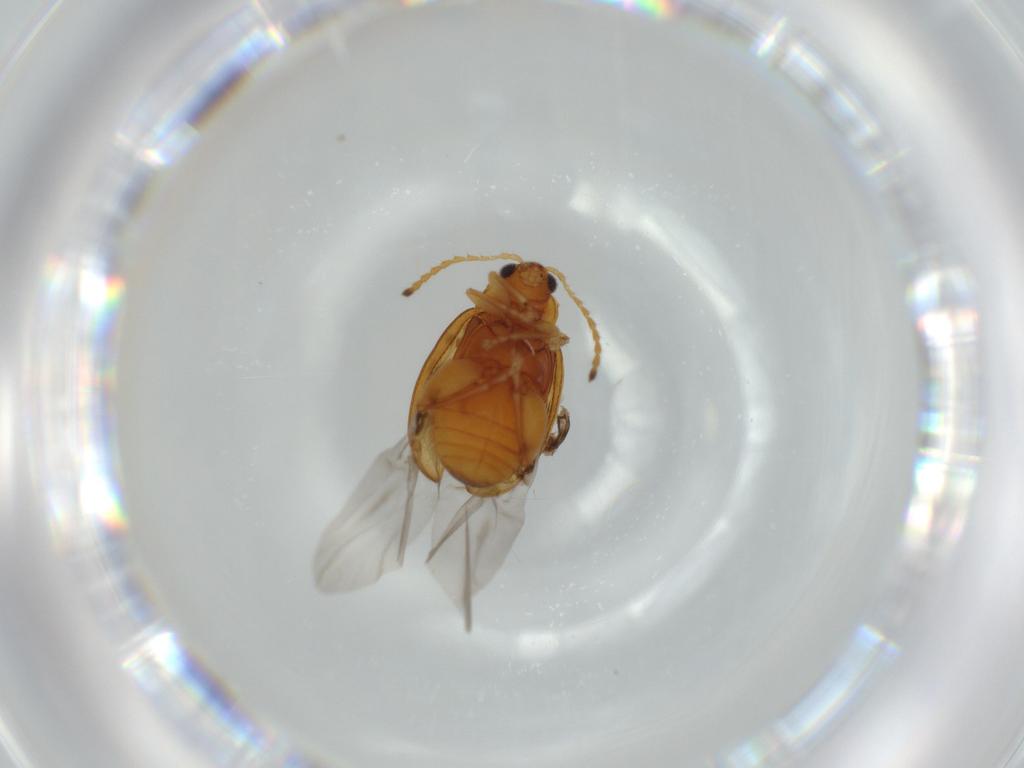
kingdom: Animalia
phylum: Arthropoda
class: Insecta
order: Coleoptera
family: Chrysomelidae
